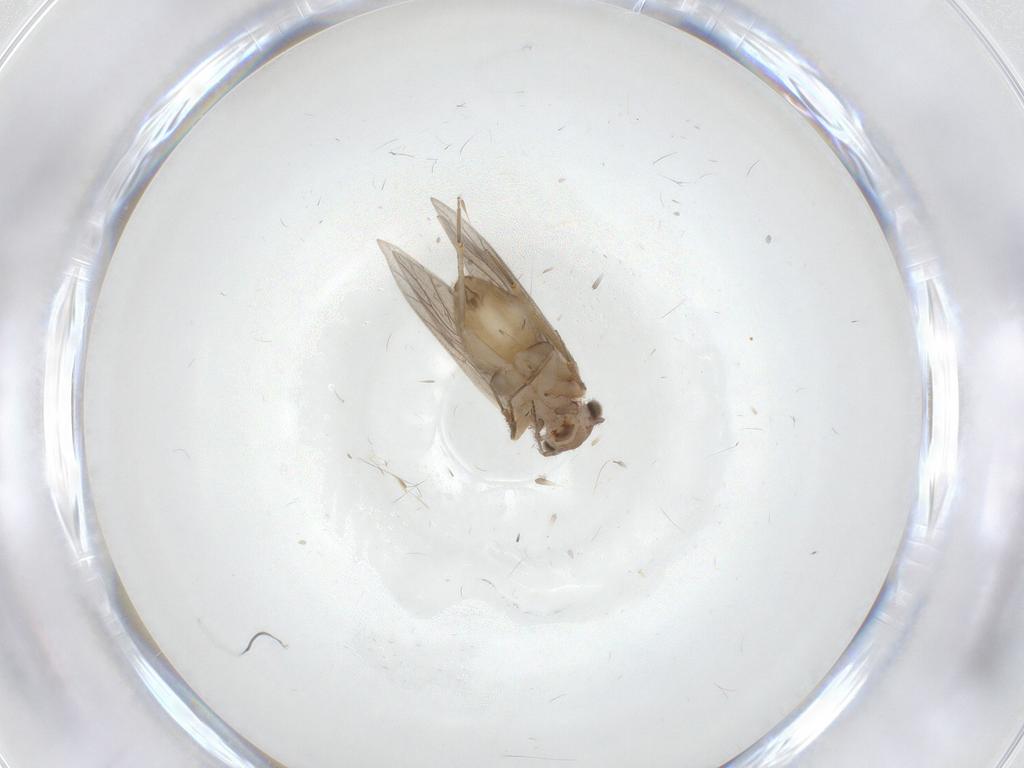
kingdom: Animalia
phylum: Arthropoda
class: Insecta
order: Psocodea
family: Lepidopsocidae
